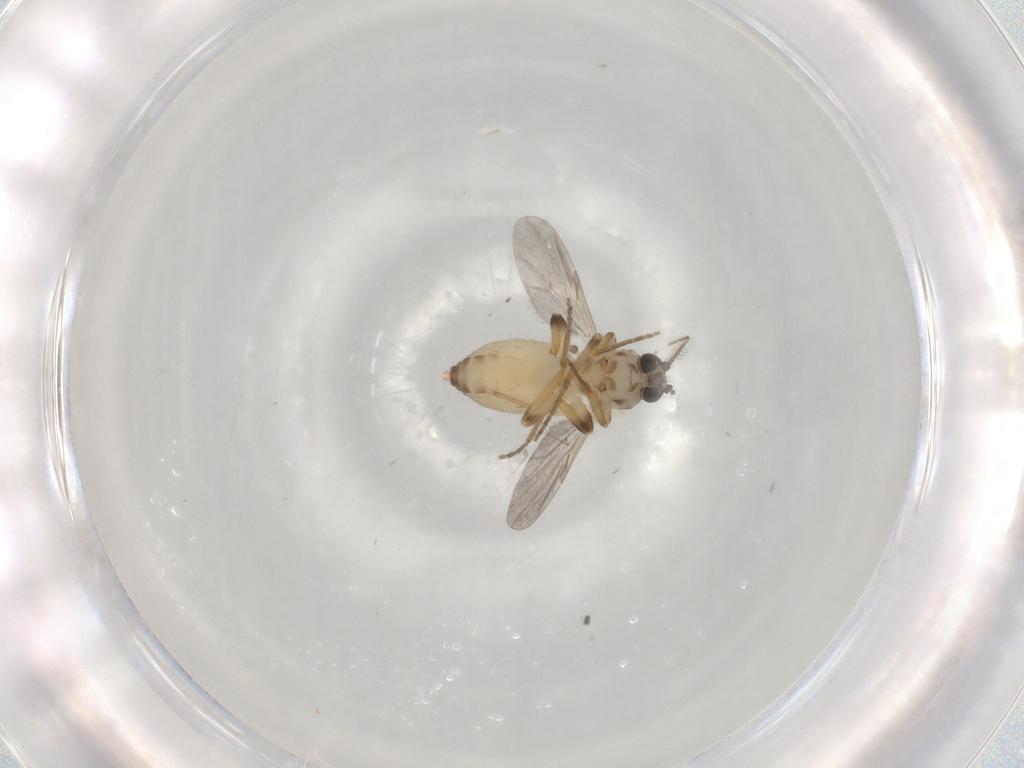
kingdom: Animalia
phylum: Arthropoda
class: Insecta
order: Diptera
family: Ceratopogonidae
